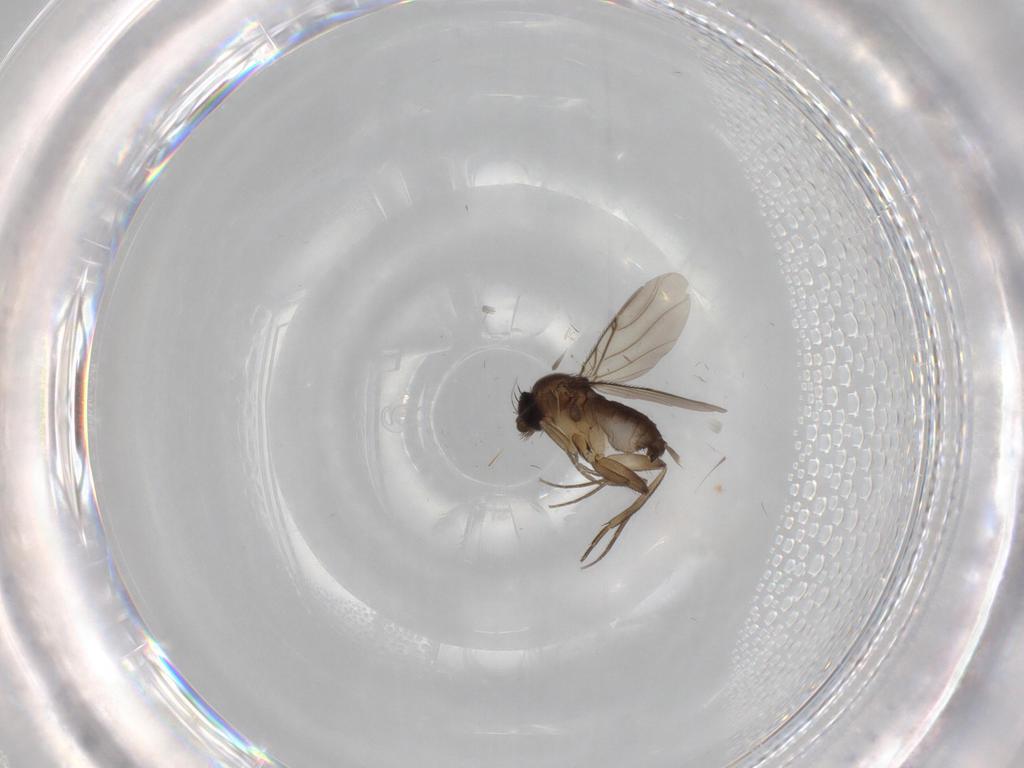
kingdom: Animalia
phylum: Arthropoda
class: Insecta
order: Diptera
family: Phoridae
